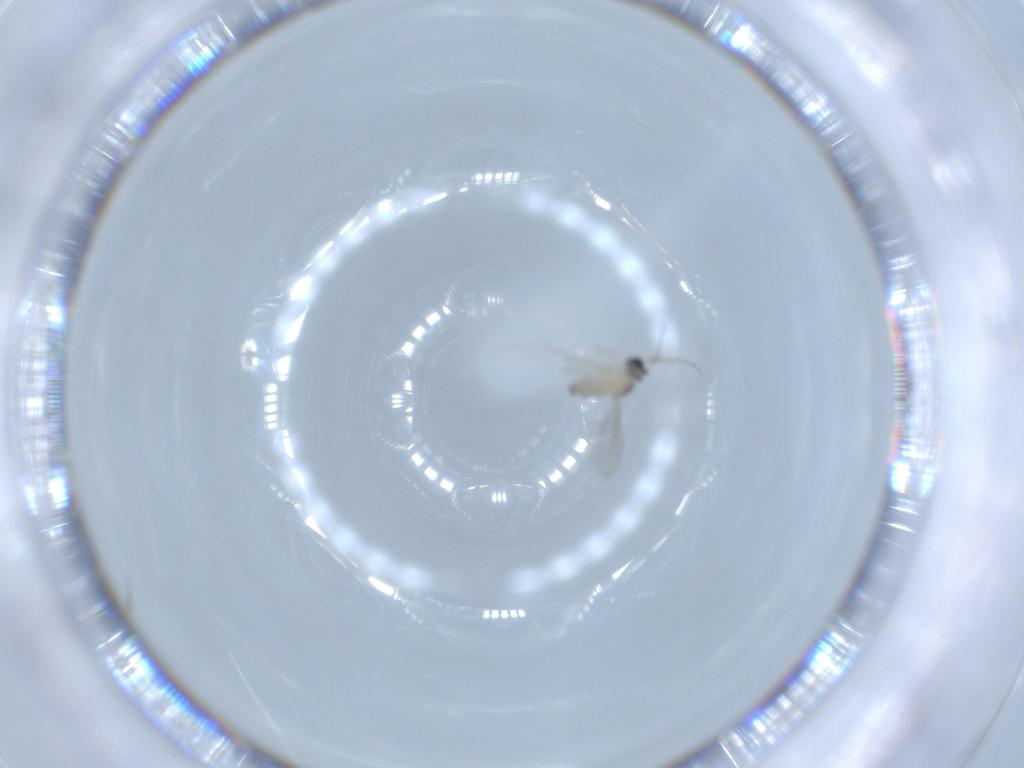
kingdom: Animalia
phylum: Arthropoda
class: Insecta
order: Diptera
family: Cecidomyiidae
